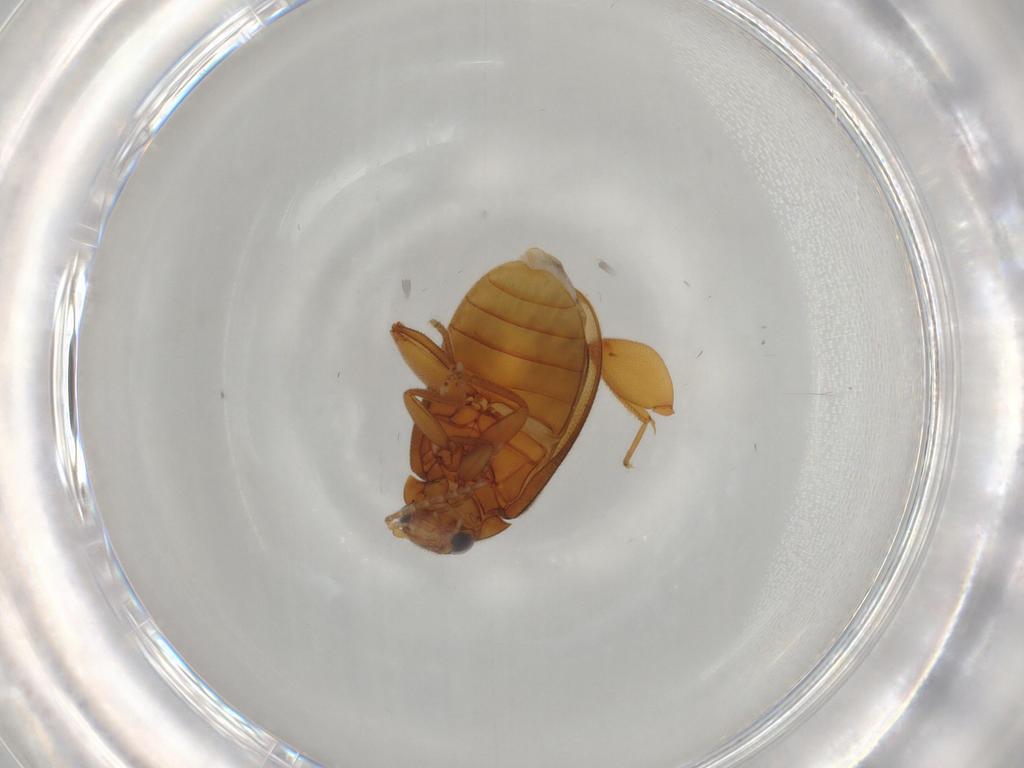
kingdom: Animalia
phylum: Arthropoda
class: Insecta
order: Coleoptera
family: Scirtidae
